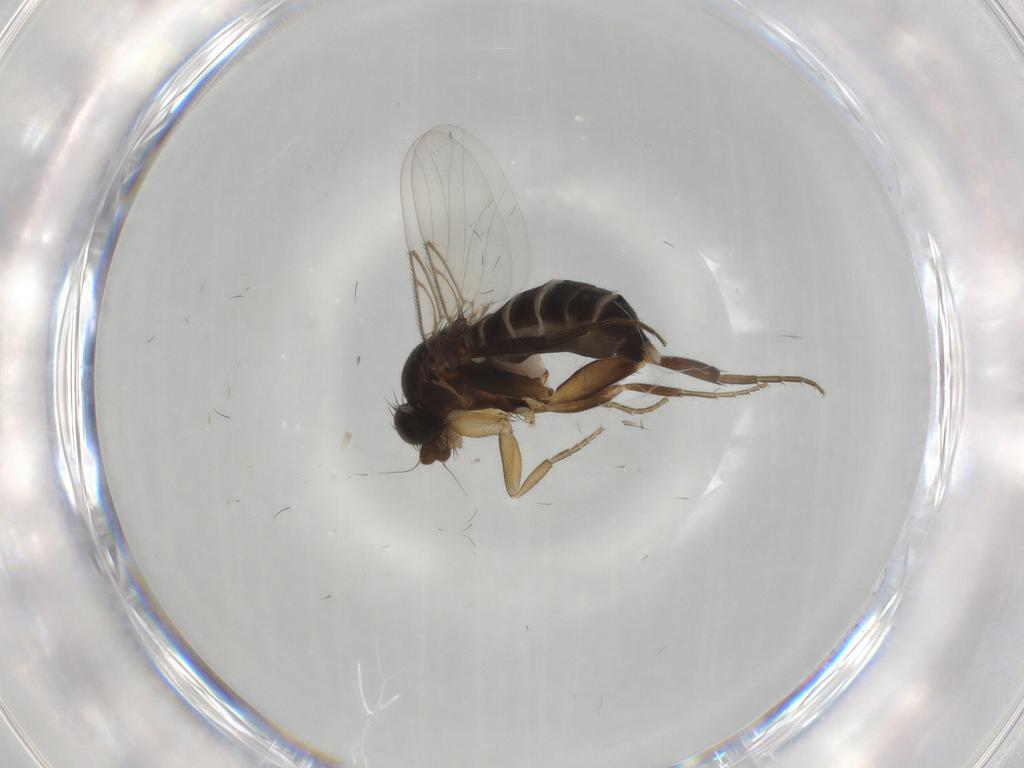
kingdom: Animalia
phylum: Arthropoda
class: Insecta
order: Diptera
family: Phoridae
